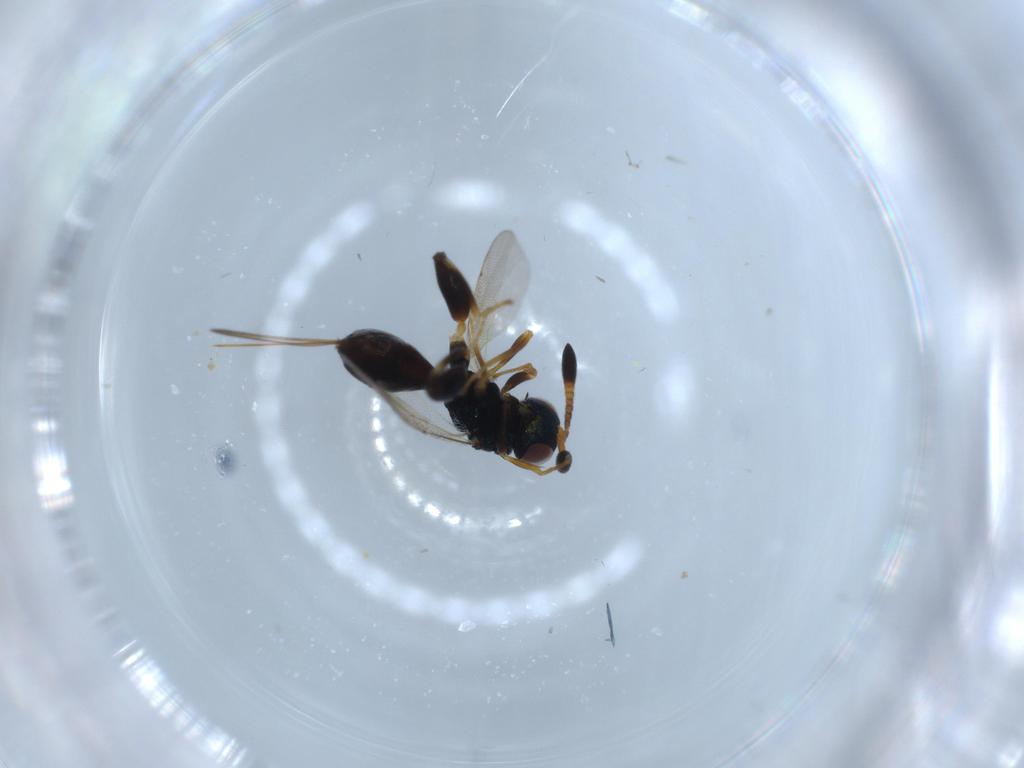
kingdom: Animalia
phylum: Arthropoda
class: Insecta
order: Hymenoptera
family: Torymidae
